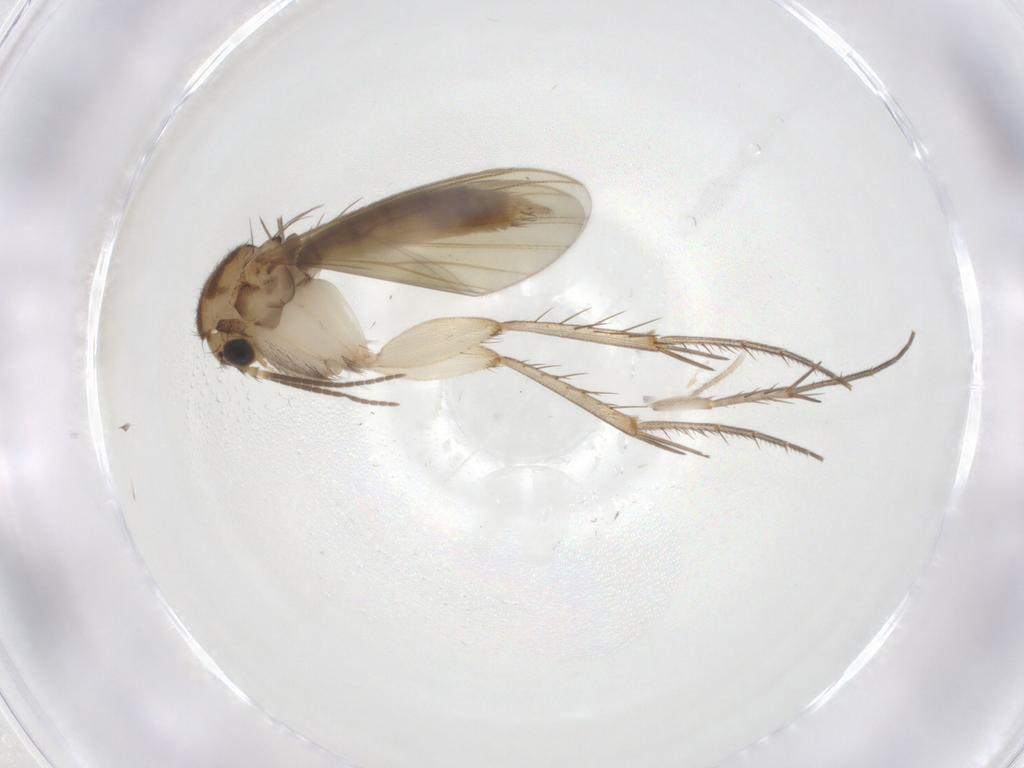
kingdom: Animalia
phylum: Arthropoda
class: Insecta
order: Diptera
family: Mycetophilidae
